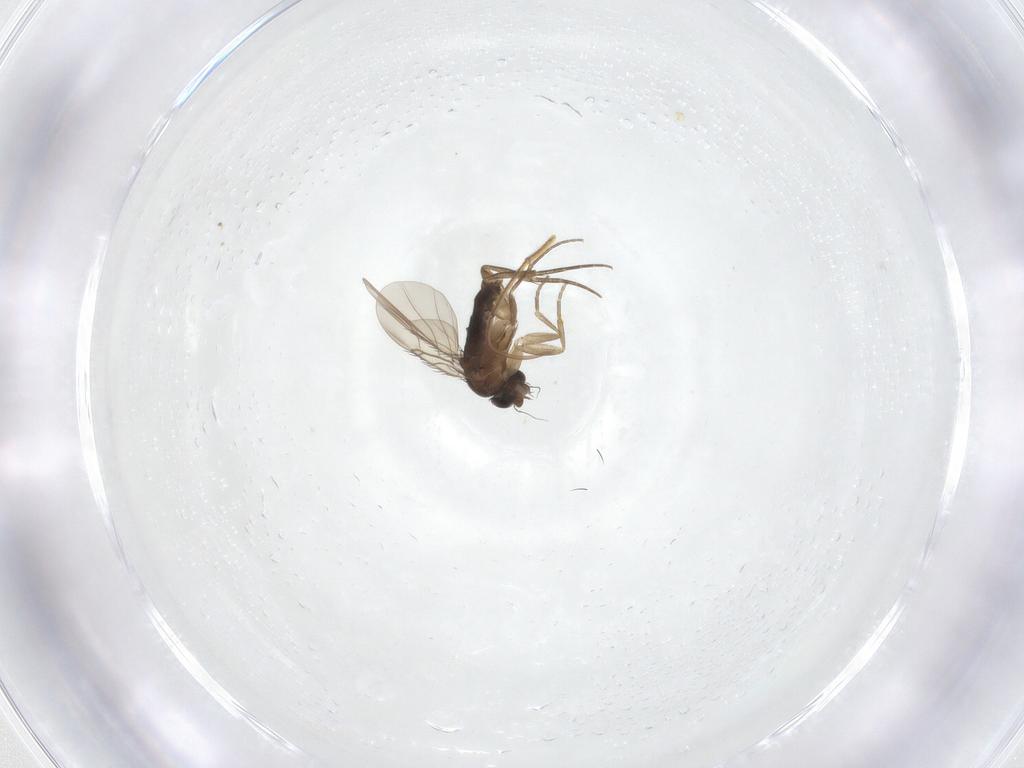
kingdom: Animalia
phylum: Arthropoda
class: Insecta
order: Diptera
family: Phoridae
